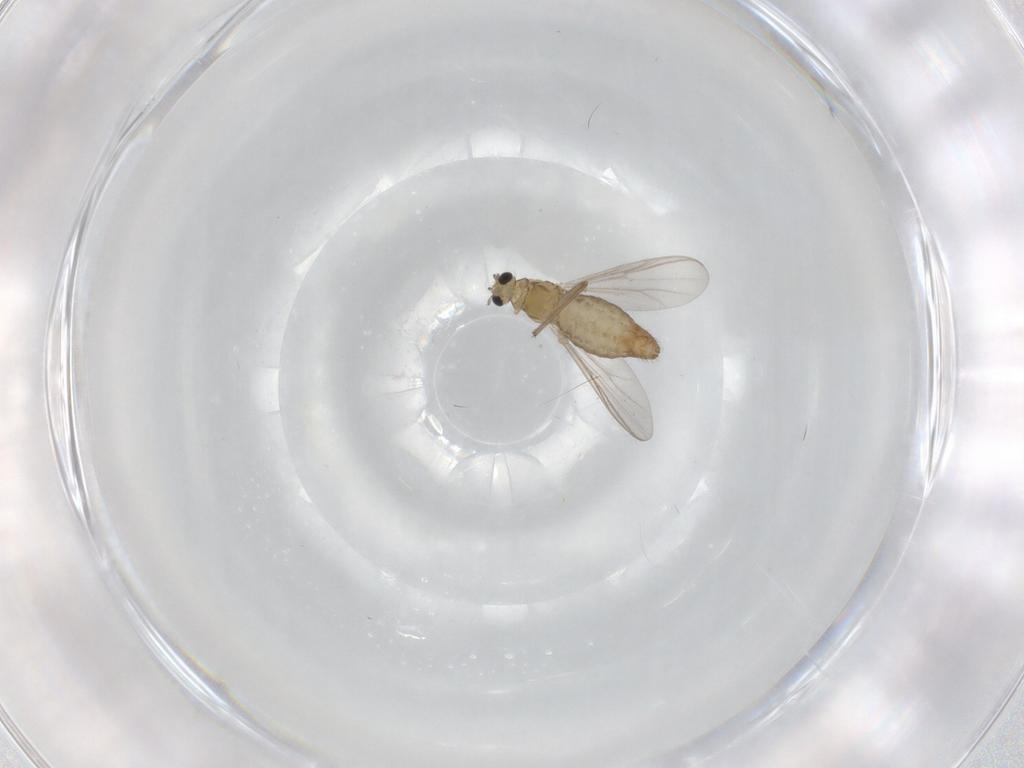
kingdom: Animalia
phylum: Arthropoda
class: Insecta
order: Diptera
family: Chironomidae
